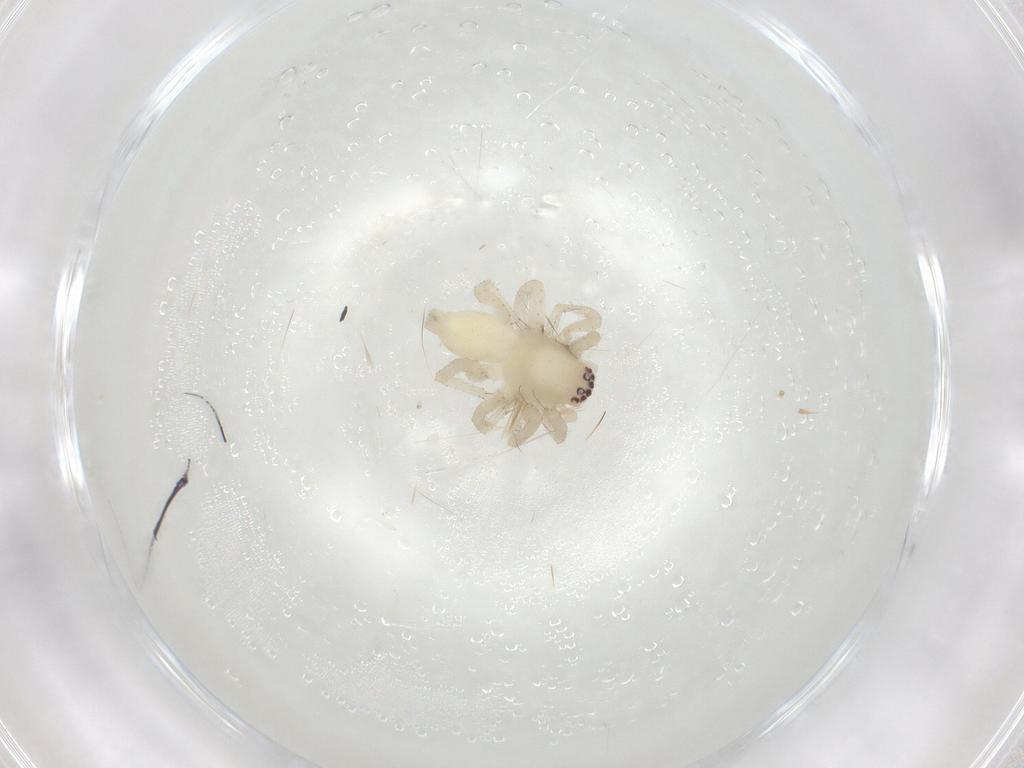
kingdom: Animalia
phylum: Arthropoda
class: Arachnida
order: Araneae
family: Clubionidae
